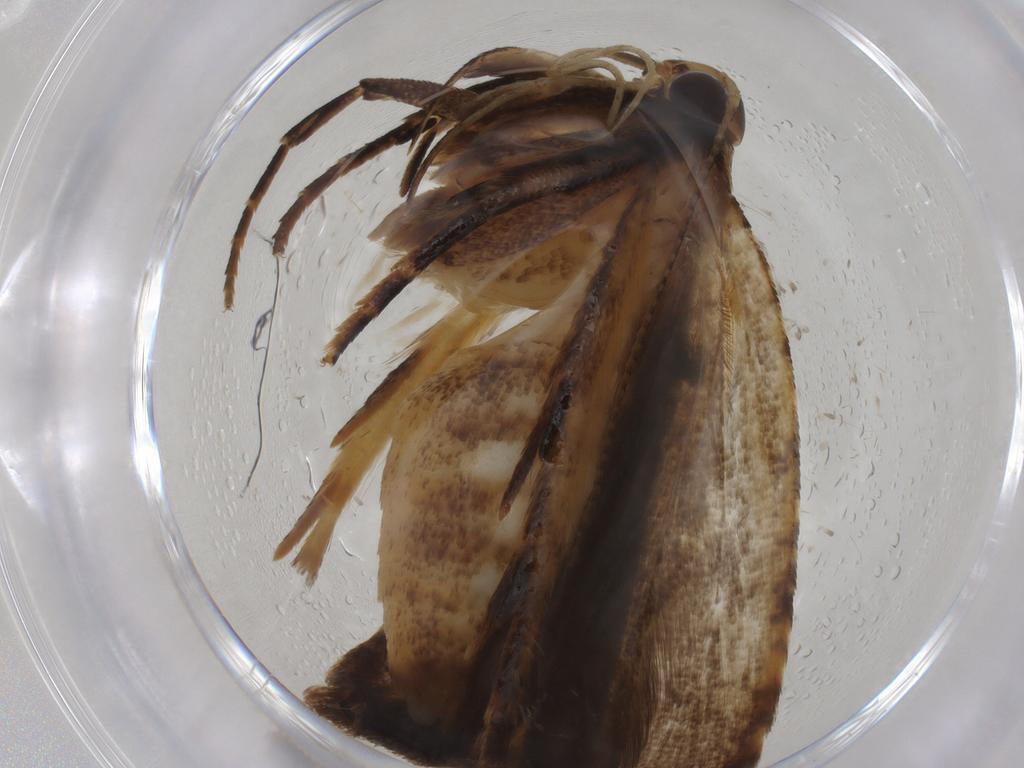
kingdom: Animalia
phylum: Arthropoda
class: Insecta
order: Lepidoptera
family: Gelechiidae
